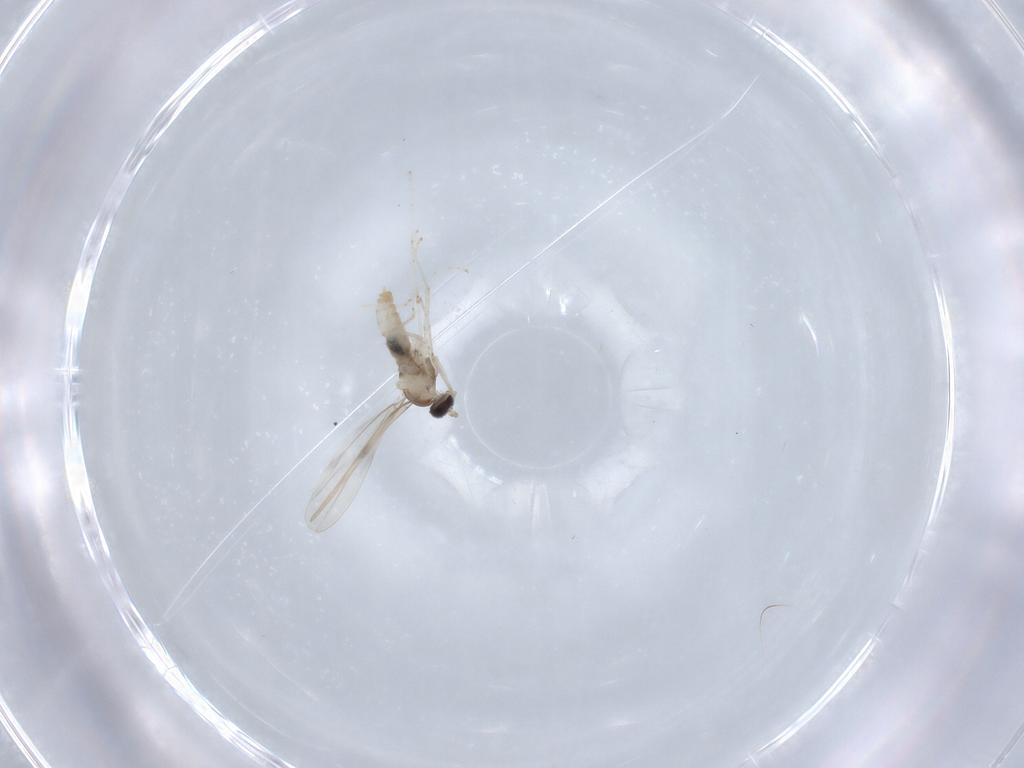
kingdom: Animalia
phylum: Arthropoda
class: Insecta
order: Diptera
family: Cecidomyiidae
